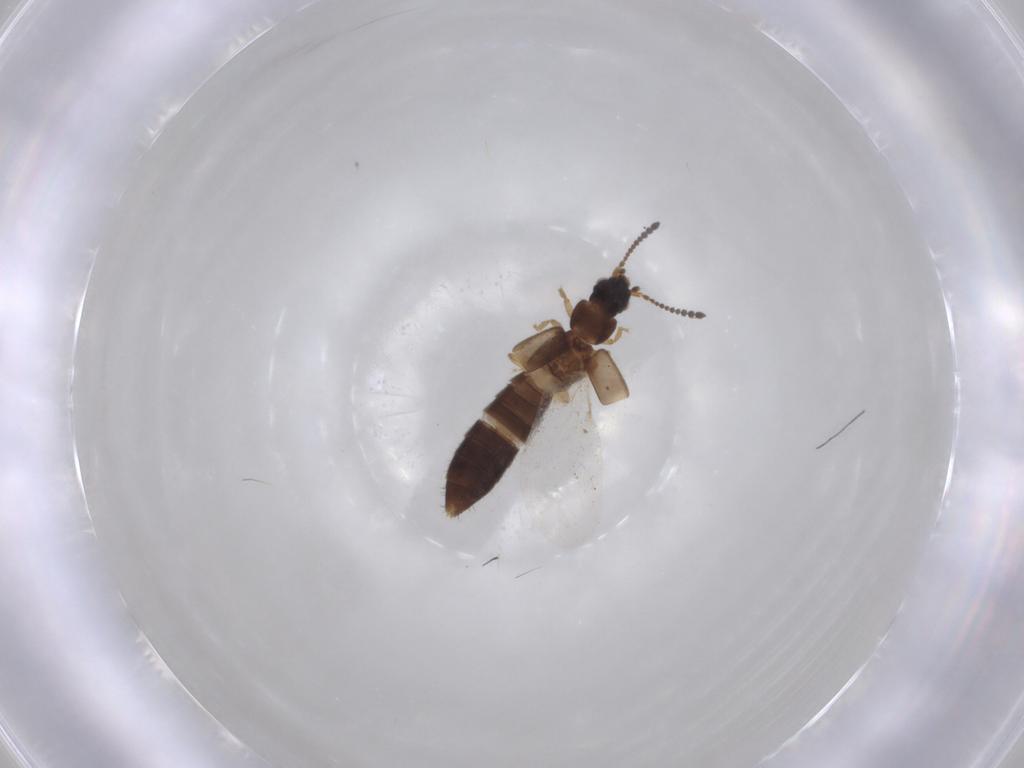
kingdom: Animalia
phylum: Arthropoda
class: Insecta
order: Coleoptera
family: Staphylinidae
